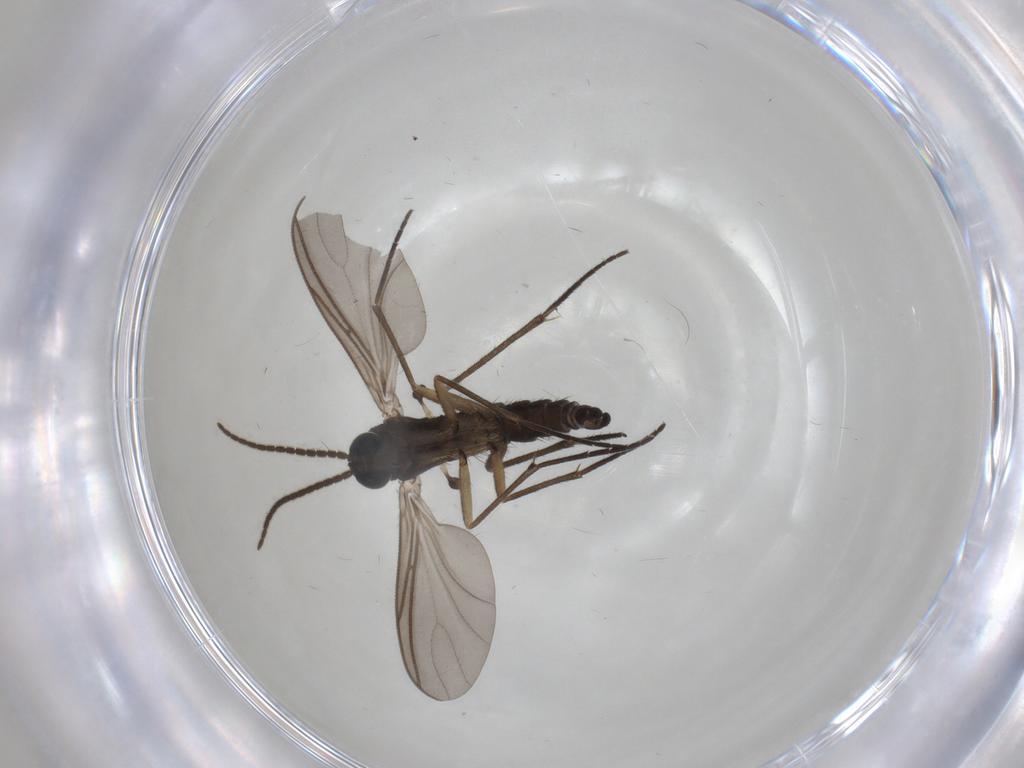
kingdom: Animalia
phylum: Arthropoda
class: Insecta
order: Diptera
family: Sciaridae
